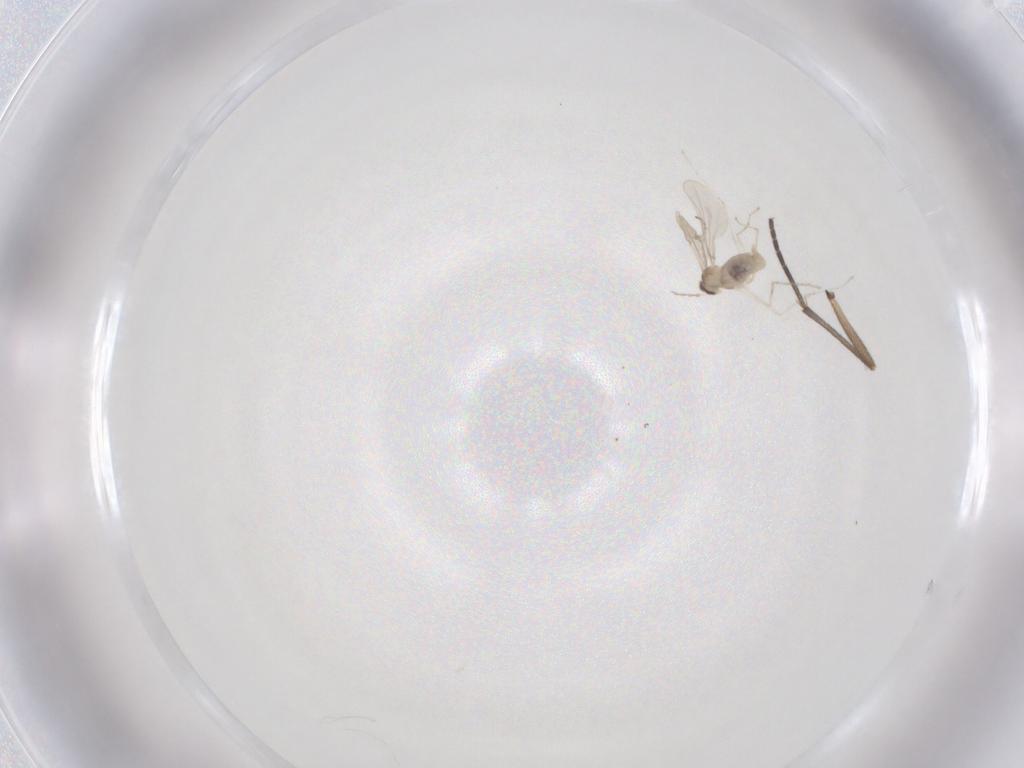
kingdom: Animalia
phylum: Arthropoda
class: Insecta
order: Diptera
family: Cecidomyiidae
